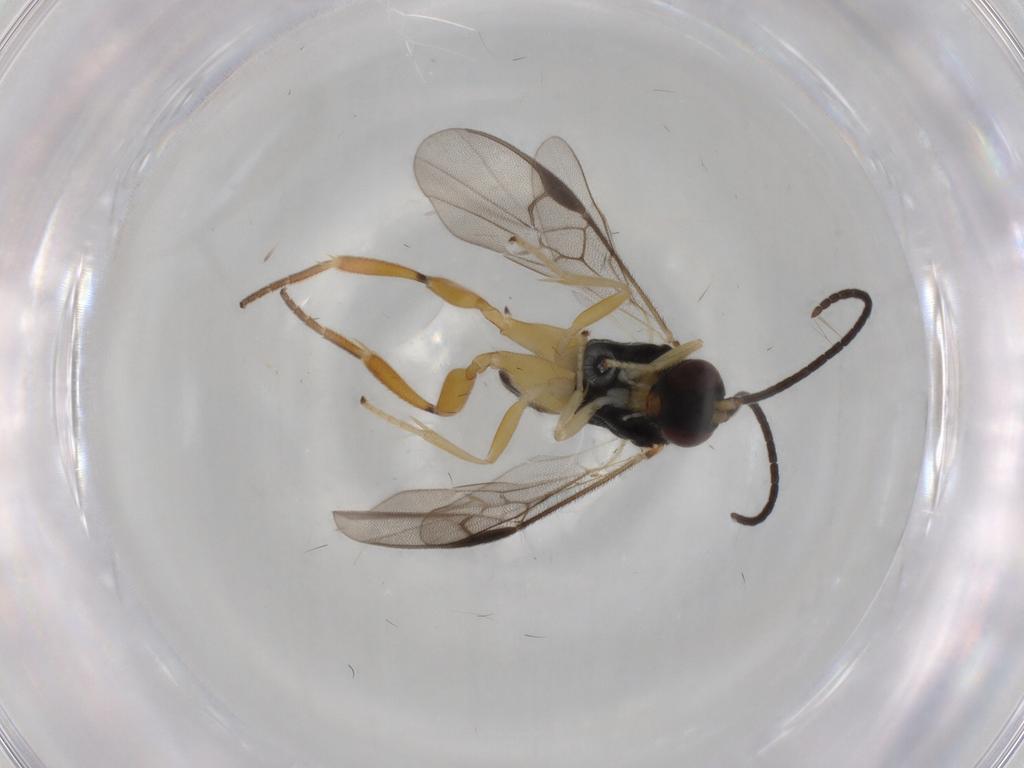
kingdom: Animalia
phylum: Arthropoda
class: Insecta
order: Hymenoptera
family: Braconidae
